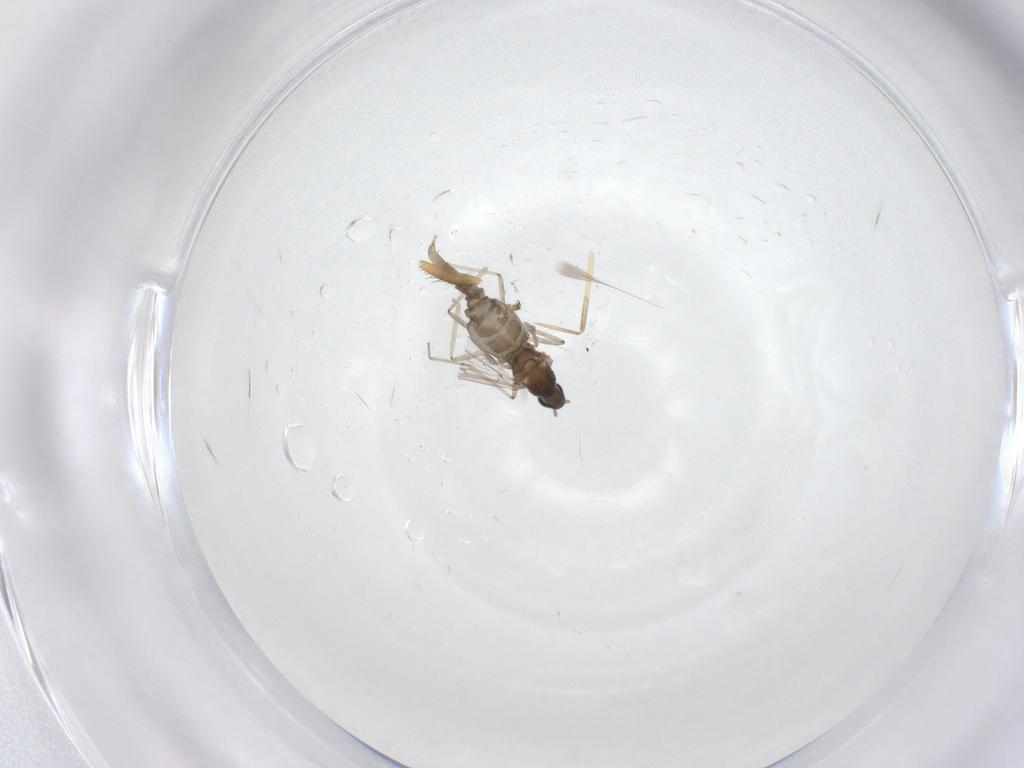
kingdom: Animalia
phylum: Arthropoda
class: Insecta
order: Diptera
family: Cecidomyiidae
